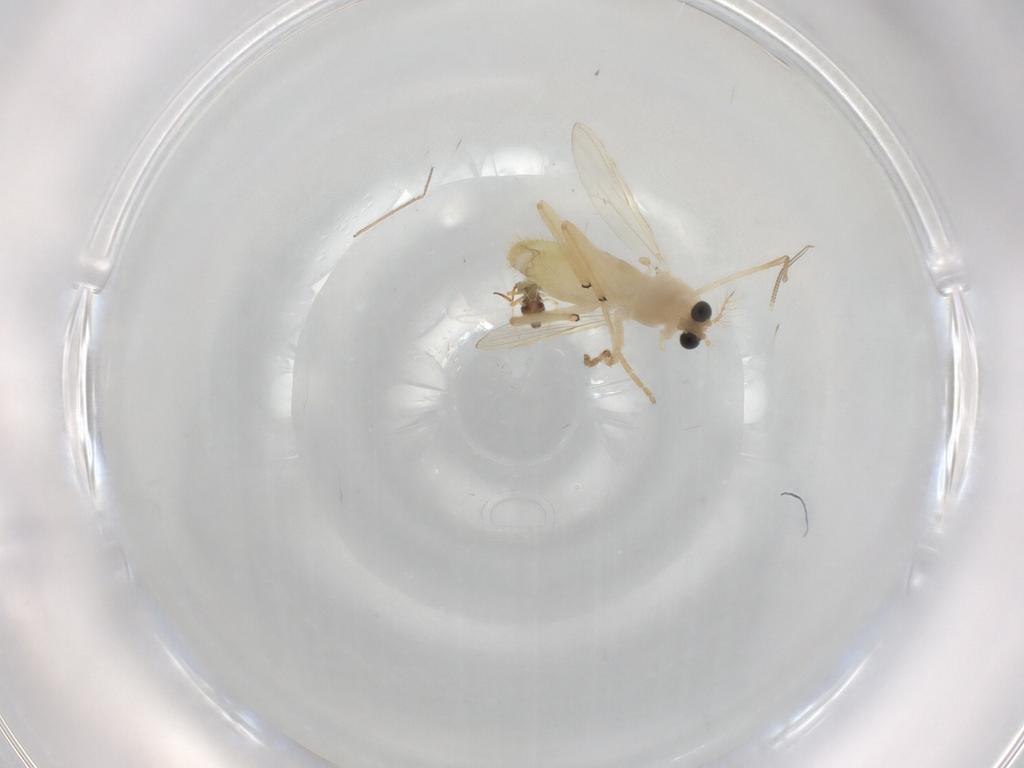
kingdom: Animalia
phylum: Arthropoda
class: Insecta
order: Diptera
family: Chironomidae
